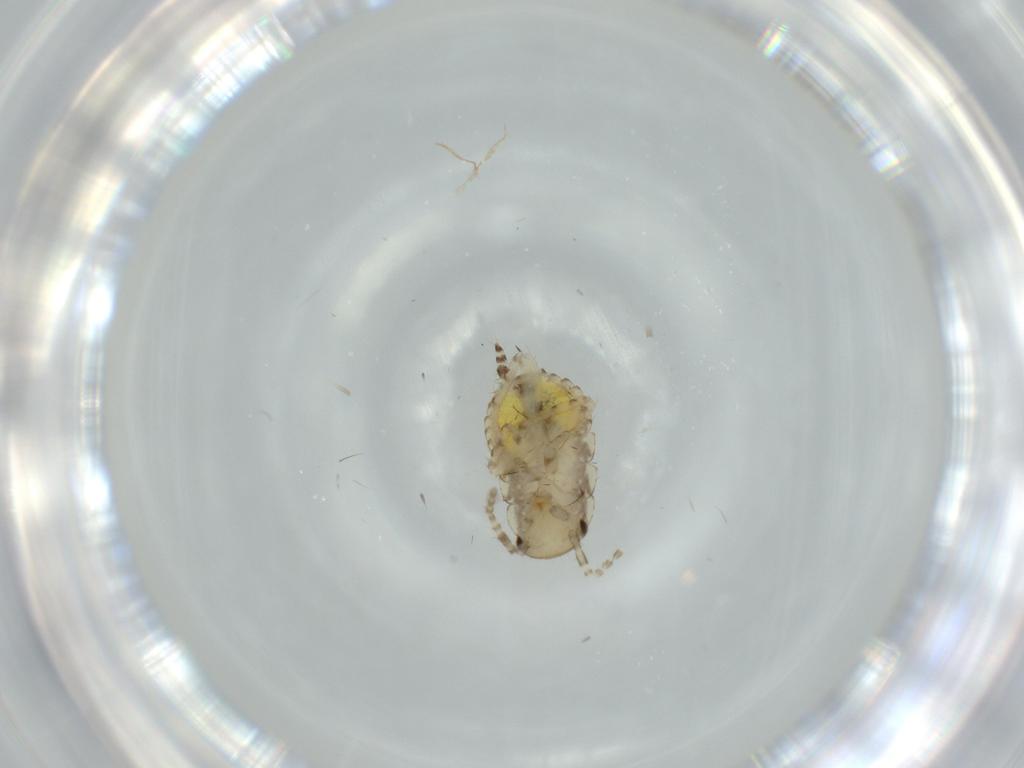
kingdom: Animalia
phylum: Arthropoda
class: Insecta
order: Blattodea
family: Ectobiidae
